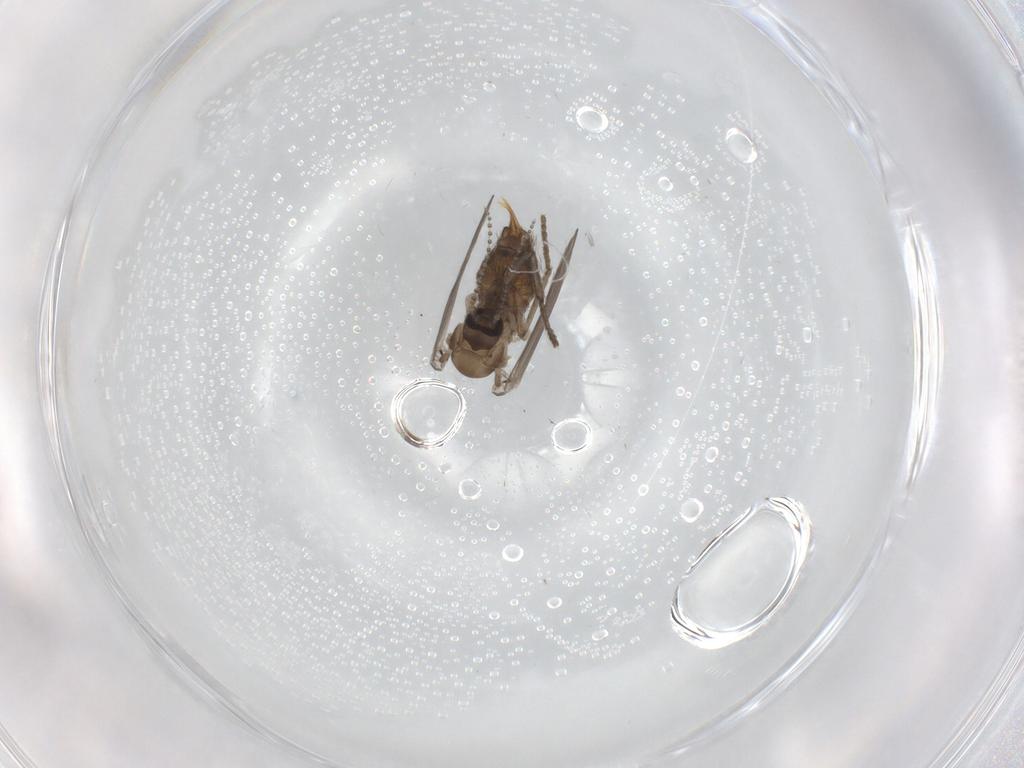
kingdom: Animalia
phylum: Arthropoda
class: Insecta
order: Diptera
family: Psychodidae
